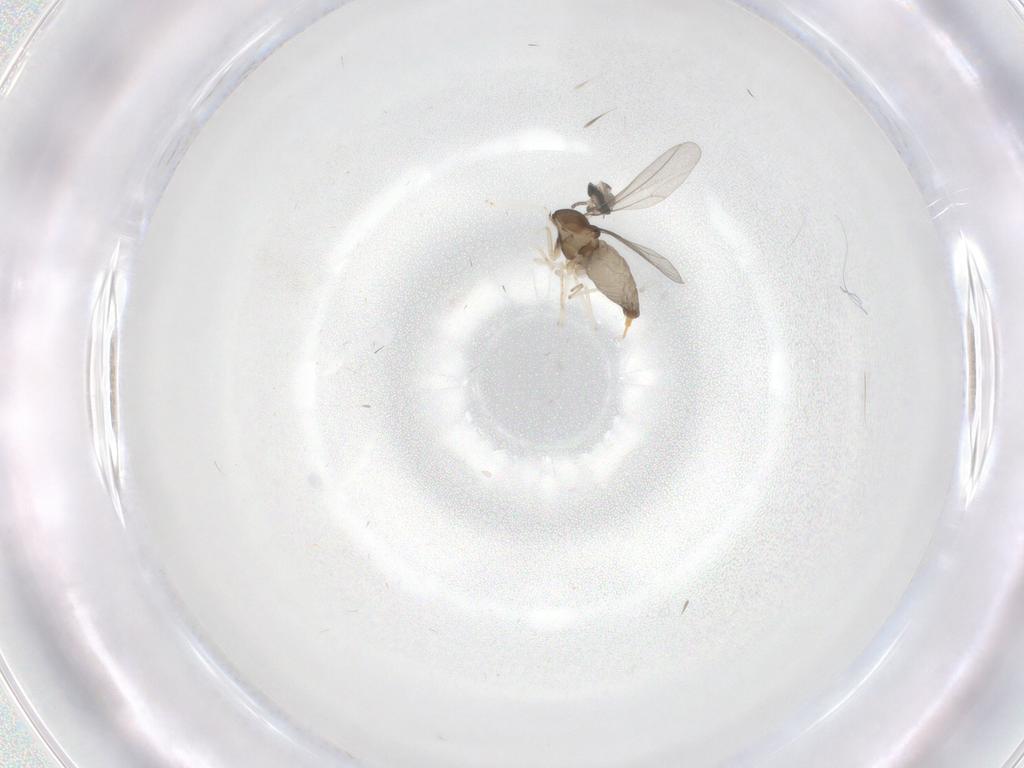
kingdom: Animalia
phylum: Arthropoda
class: Insecta
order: Diptera
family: Cecidomyiidae
